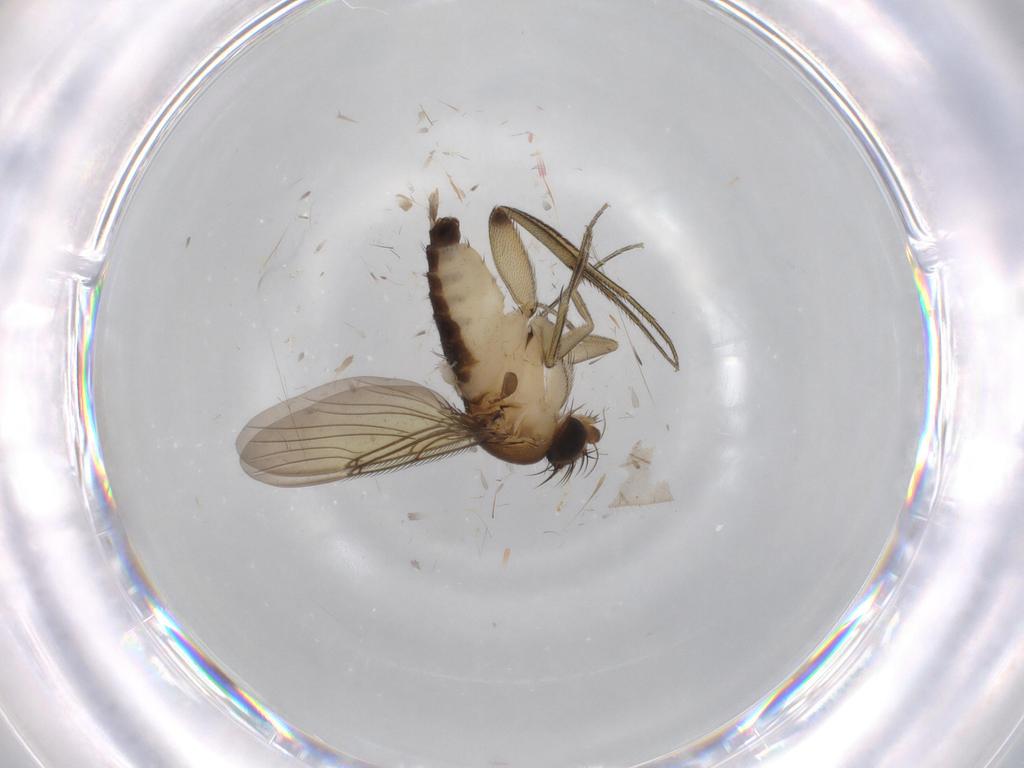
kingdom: Animalia
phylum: Arthropoda
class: Insecta
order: Diptera
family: Phoridae
